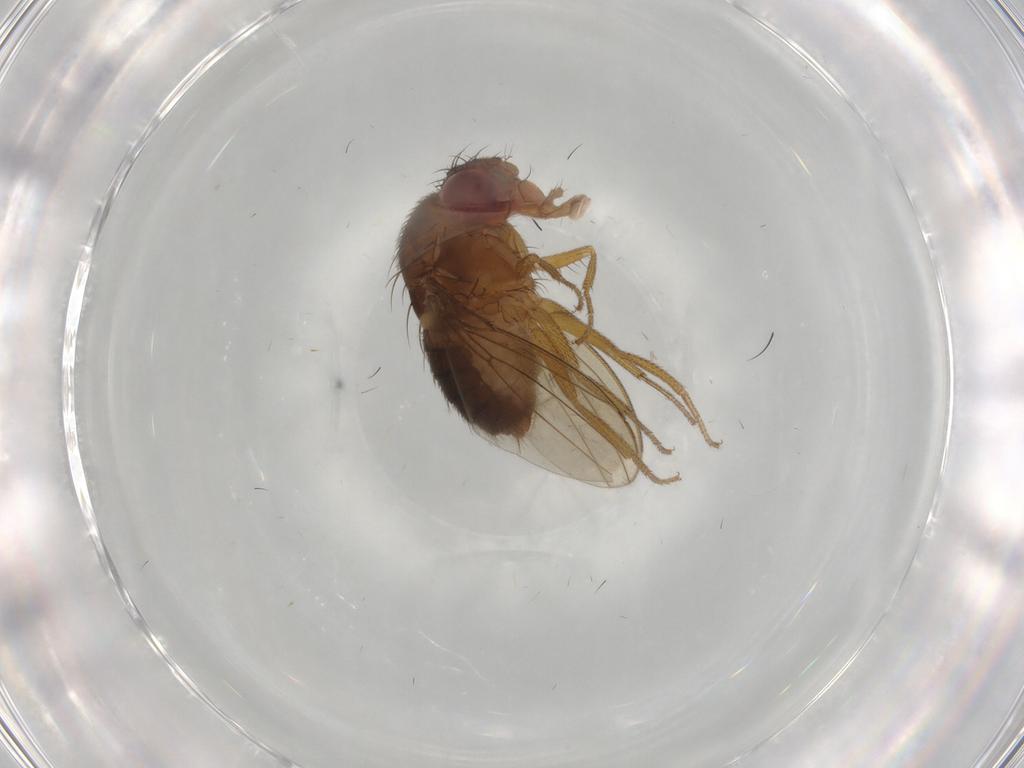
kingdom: Animalia
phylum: Arthropoda
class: Insecta
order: Diptera
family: Drosophilidae
